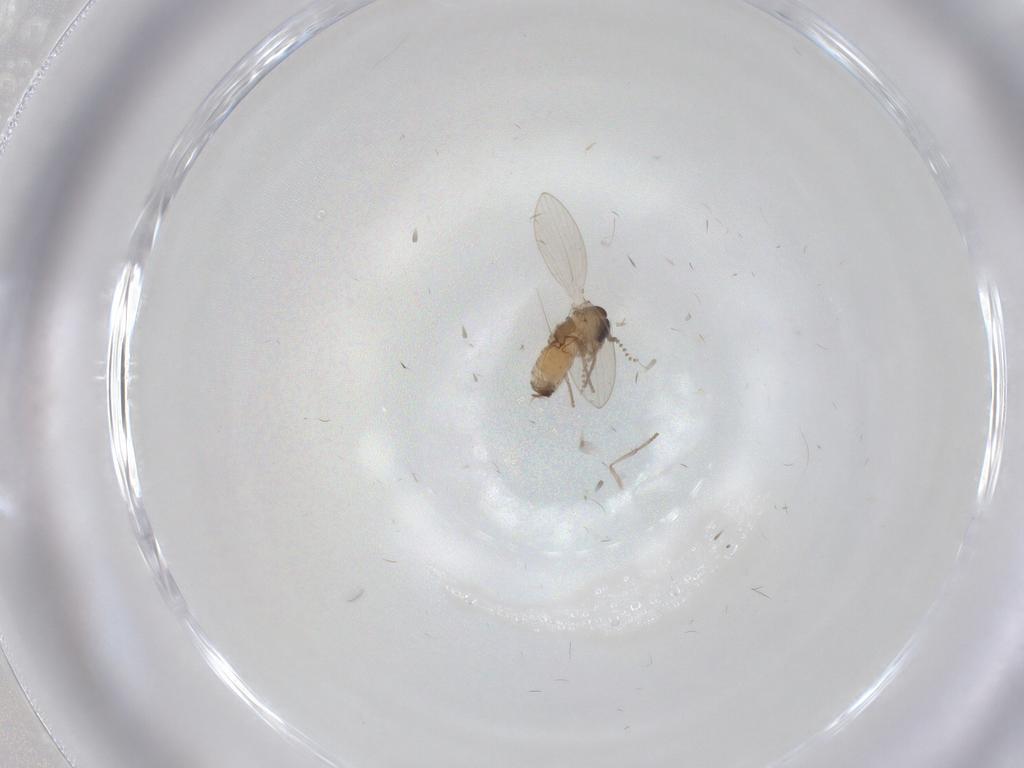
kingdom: Animalia
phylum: Arthropoda
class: Insecta
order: Diptera
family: Psychodidae
